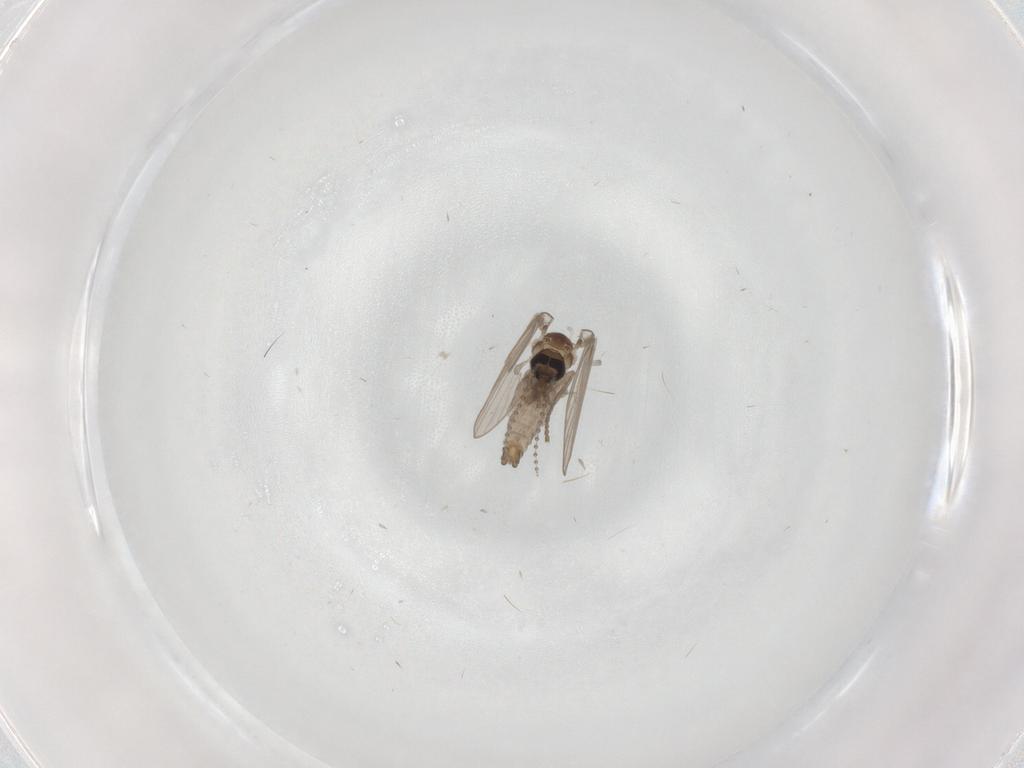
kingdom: Animalia
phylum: Arthropoda
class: Insecta
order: Diptera
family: Psychodidae
